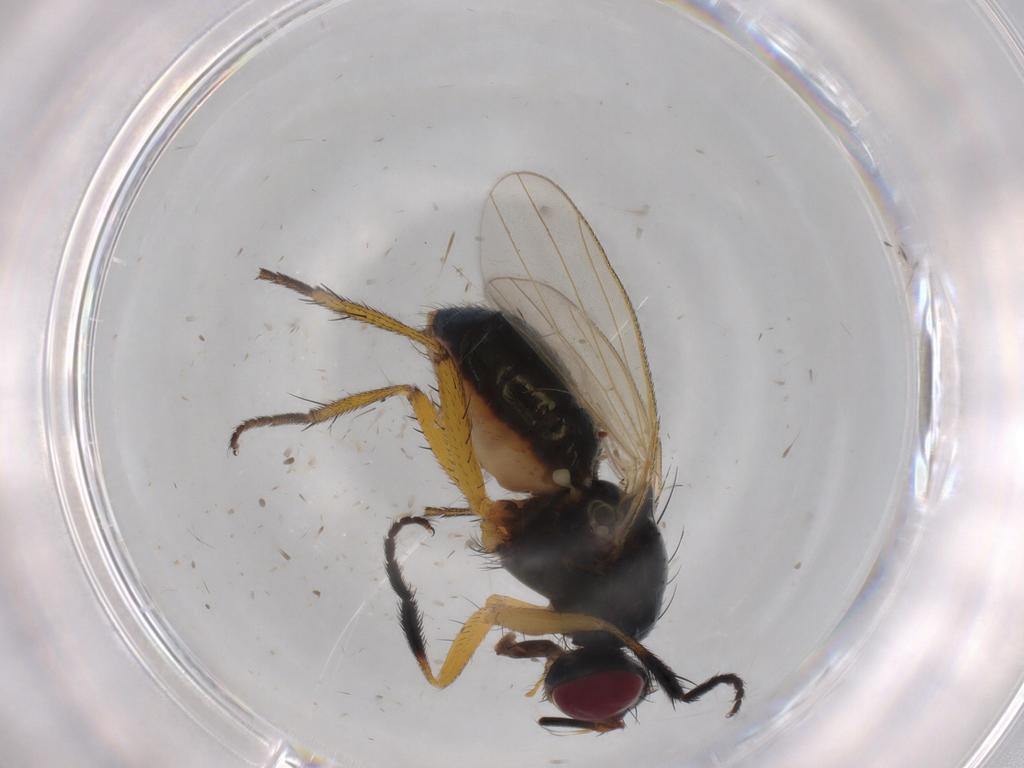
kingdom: Animalia
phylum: Arthropoda
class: Insecta
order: Diptera
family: Muscidae
